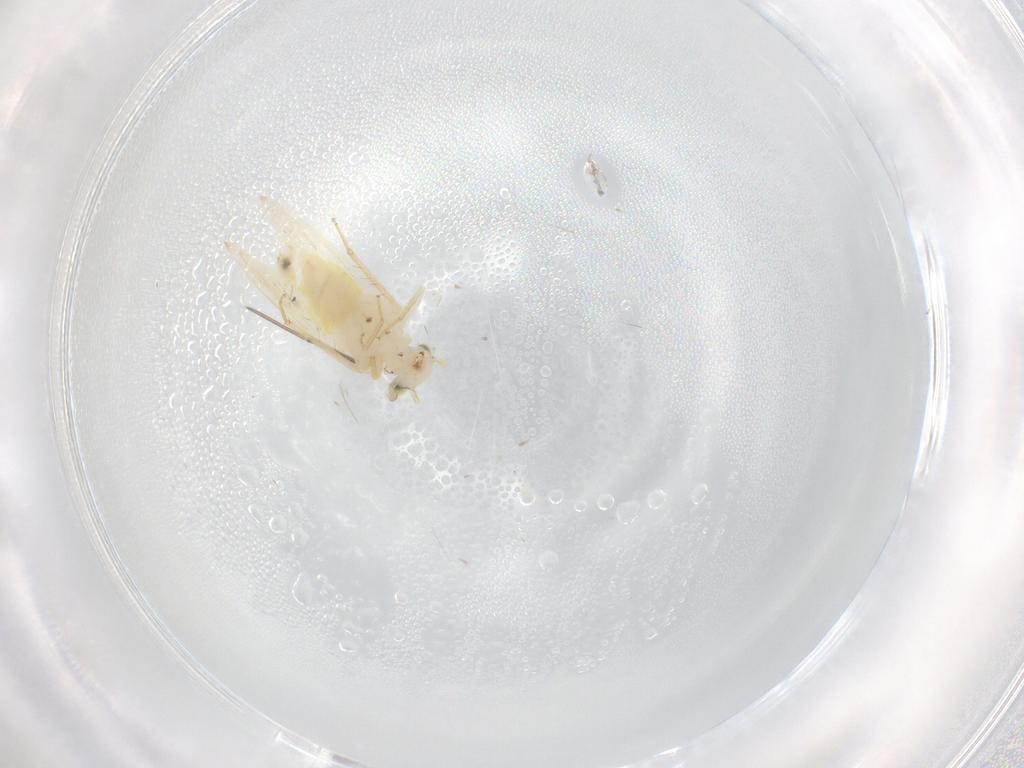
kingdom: Animalia
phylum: Arthropoda
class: Insecta
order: Psocodea
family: Lepidopsocidae
